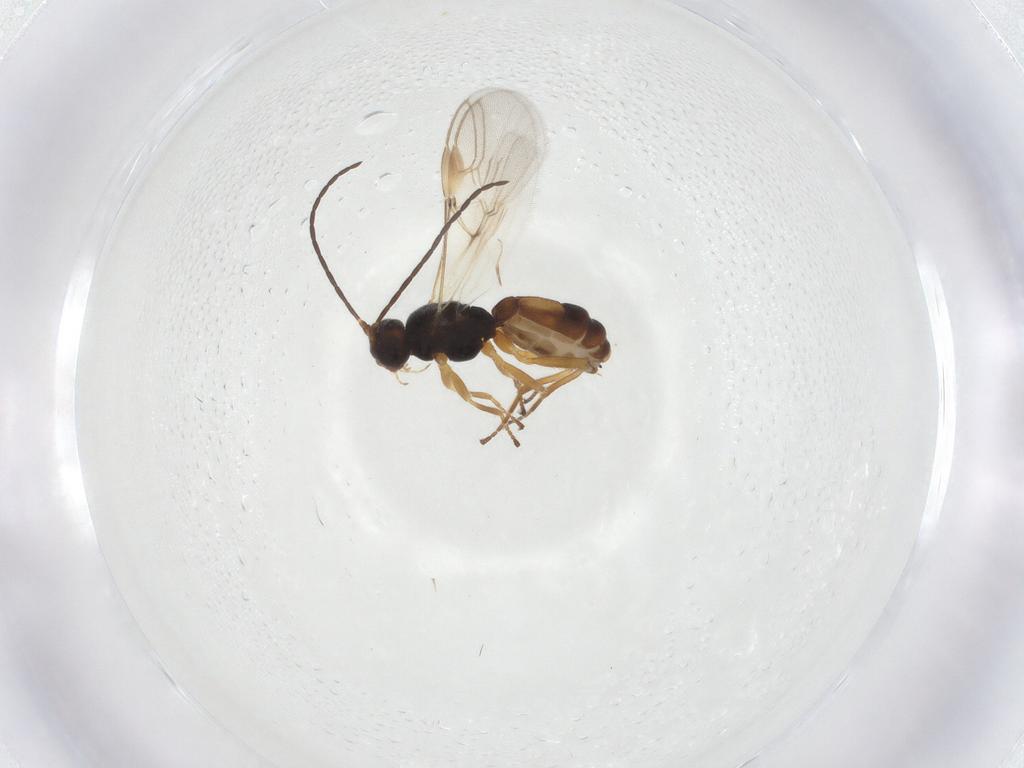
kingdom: Animalia
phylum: Arthropoda
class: Insecta
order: Hymenoptera
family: Braconidae
